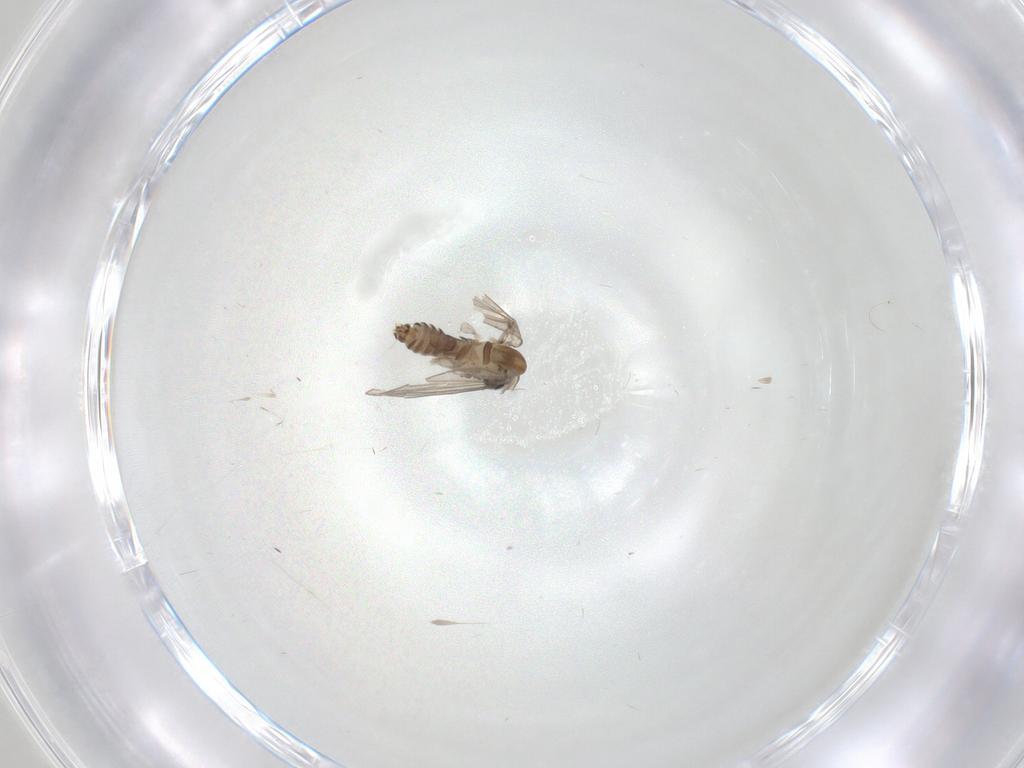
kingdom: Animalia
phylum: Arthropoda
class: Insecta
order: Diptera
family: Psychodidae
